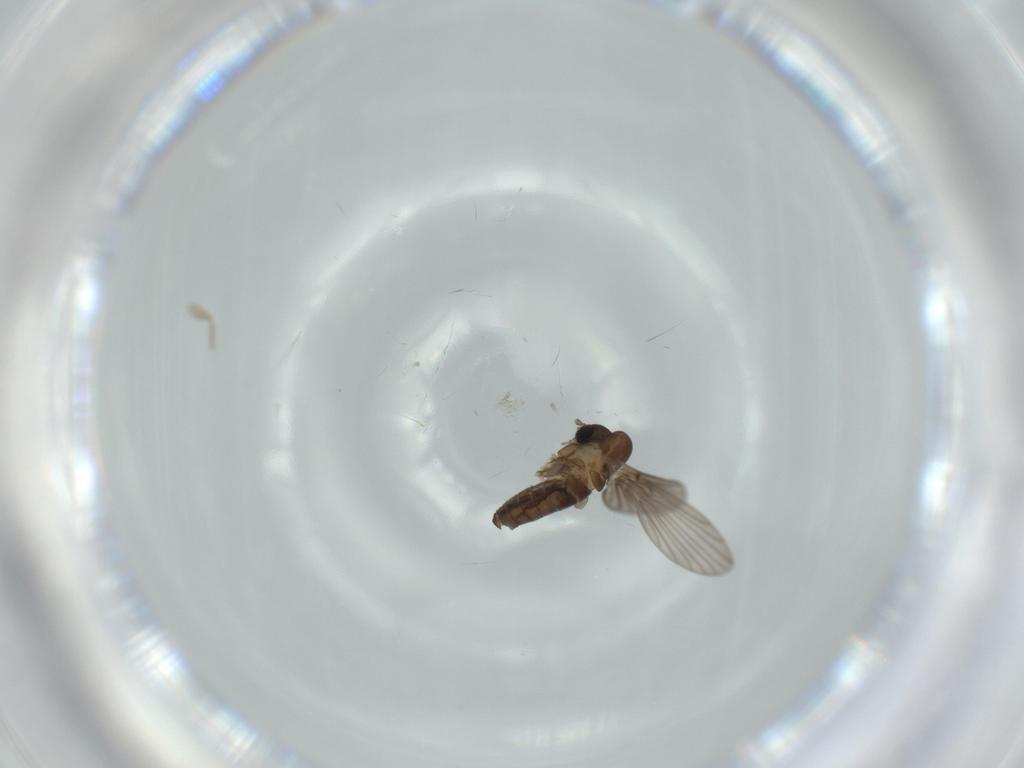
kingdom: Animalia
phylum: Arthropoda
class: Insecta
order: Diptera
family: Psychodidae
